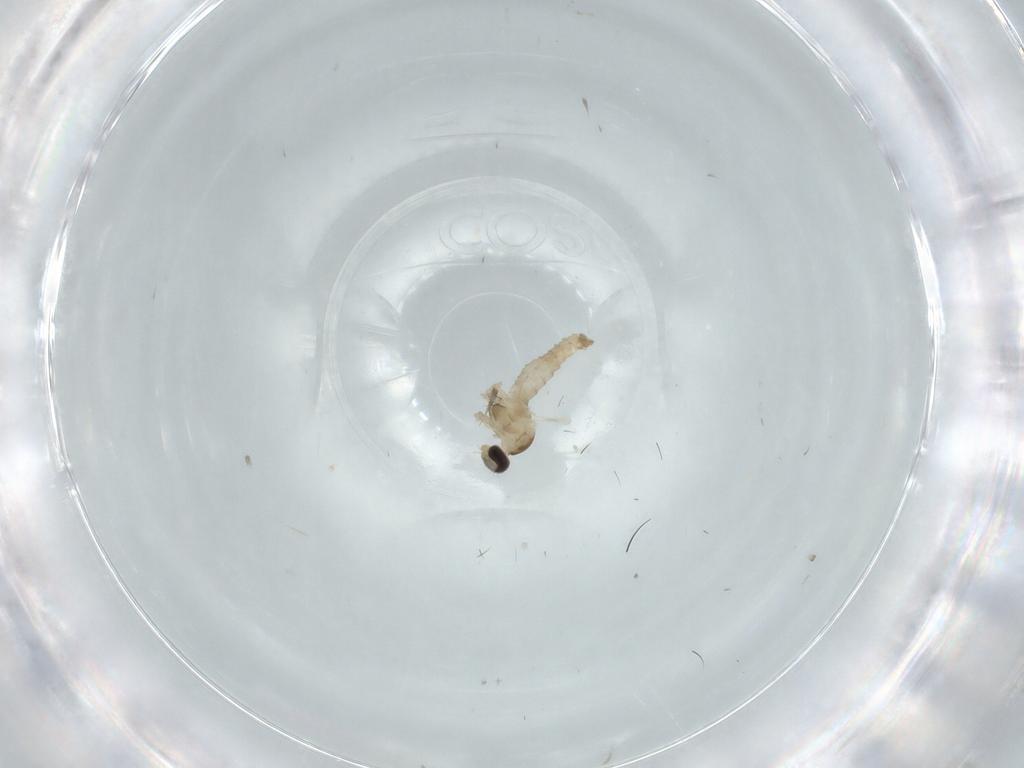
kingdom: Animalia
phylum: Arthropoda
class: Insecta
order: Diptera
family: Cecidomyiidae
